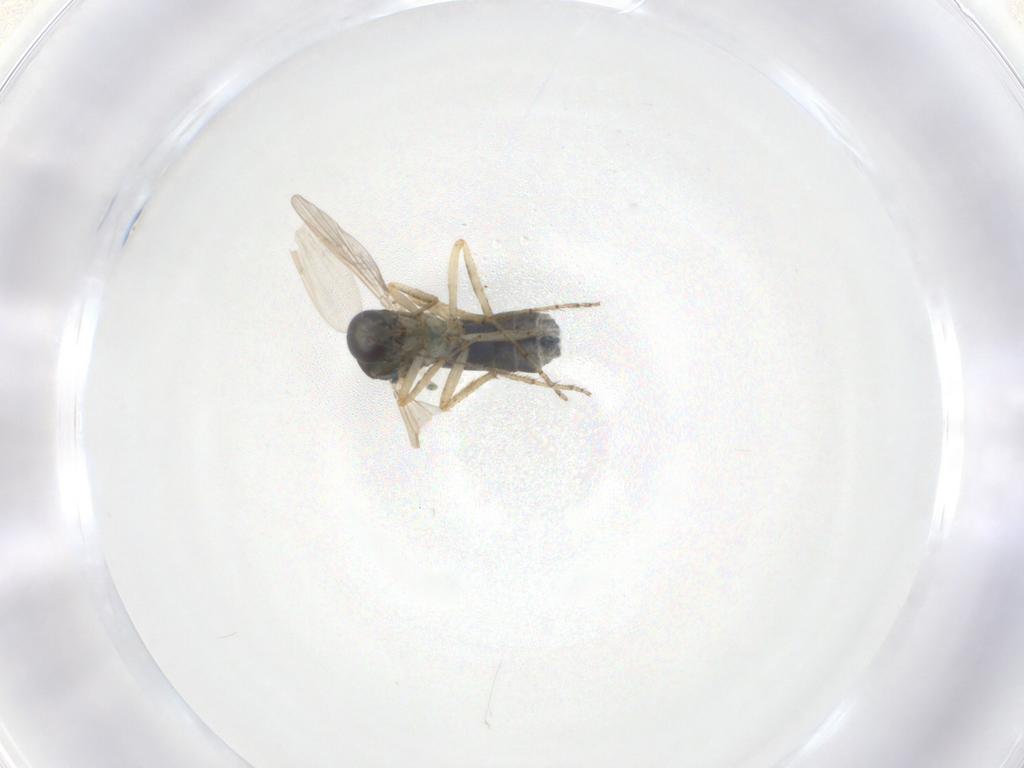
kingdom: Animalia
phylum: Arthropoda
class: Insecta
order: Diptera
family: Ceratopogonidae
